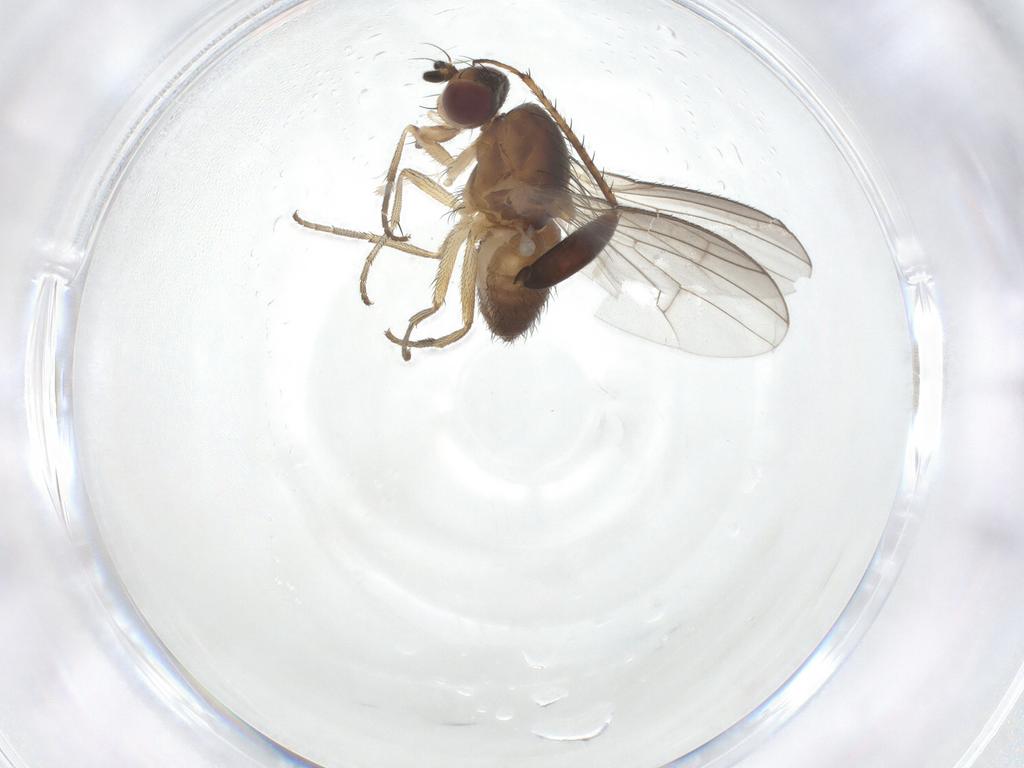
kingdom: Animalia
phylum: Arthropoda
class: Insecta
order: Diptera
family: Heleomyzidae
